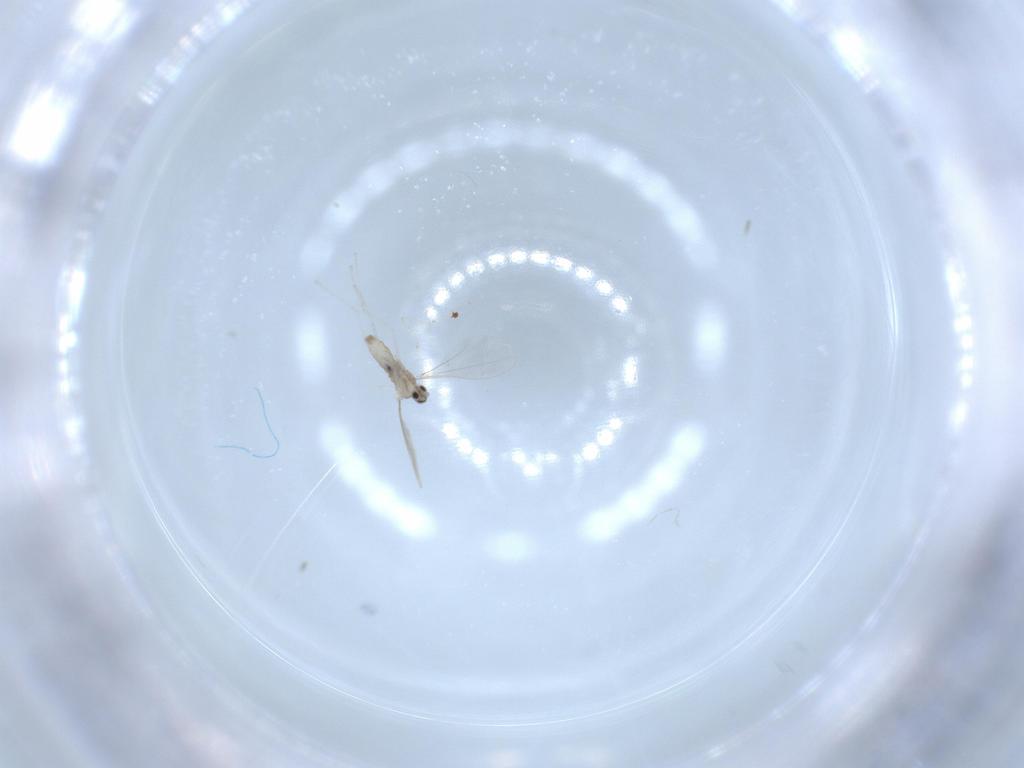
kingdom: Animalia
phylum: Arthropoda
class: Insecta
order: Diptera
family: Cecidomyiidae
